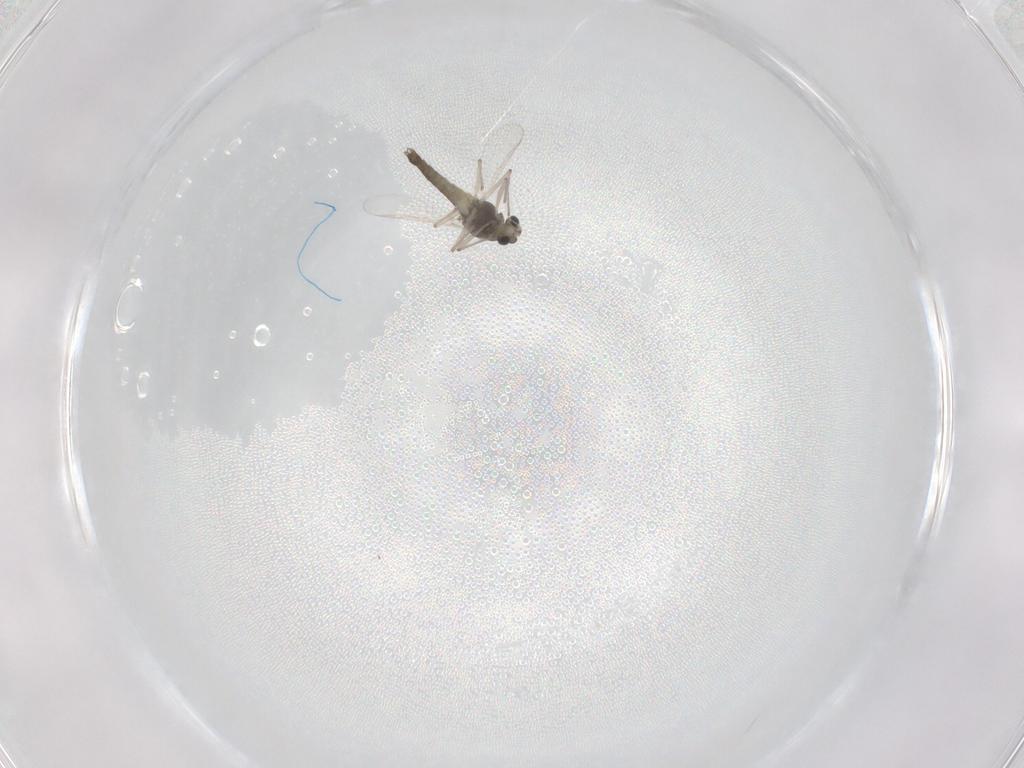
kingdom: Animalia
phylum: Arthropoda
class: Insecta
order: Diptera
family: Chironomidae
